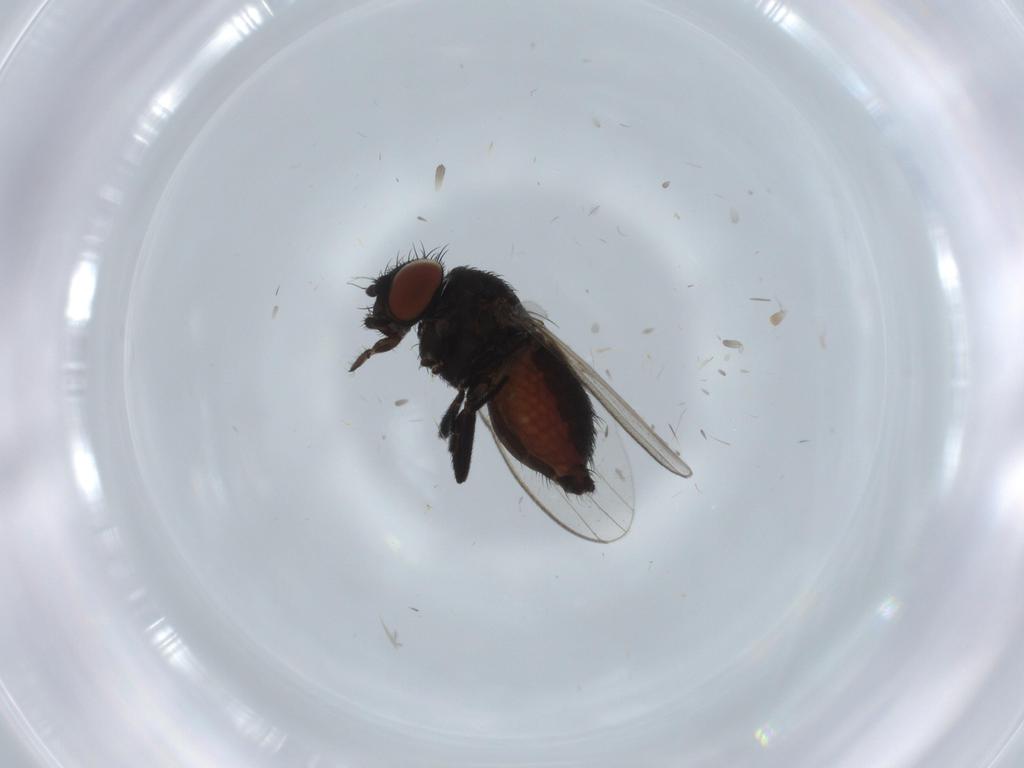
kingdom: Animalia
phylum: Arthropoda
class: Insecta
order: Diptera
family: Milichiidae
